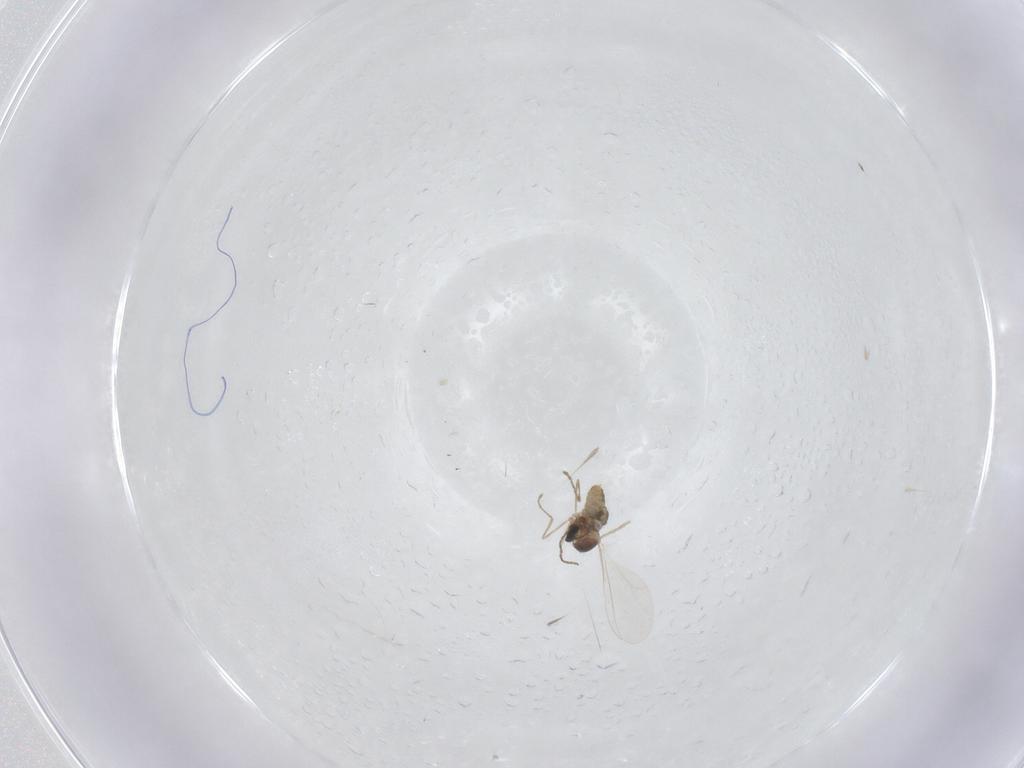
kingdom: Animalia
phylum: Arthropoda
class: Insecta
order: Diptera
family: Cecidomyiidae
